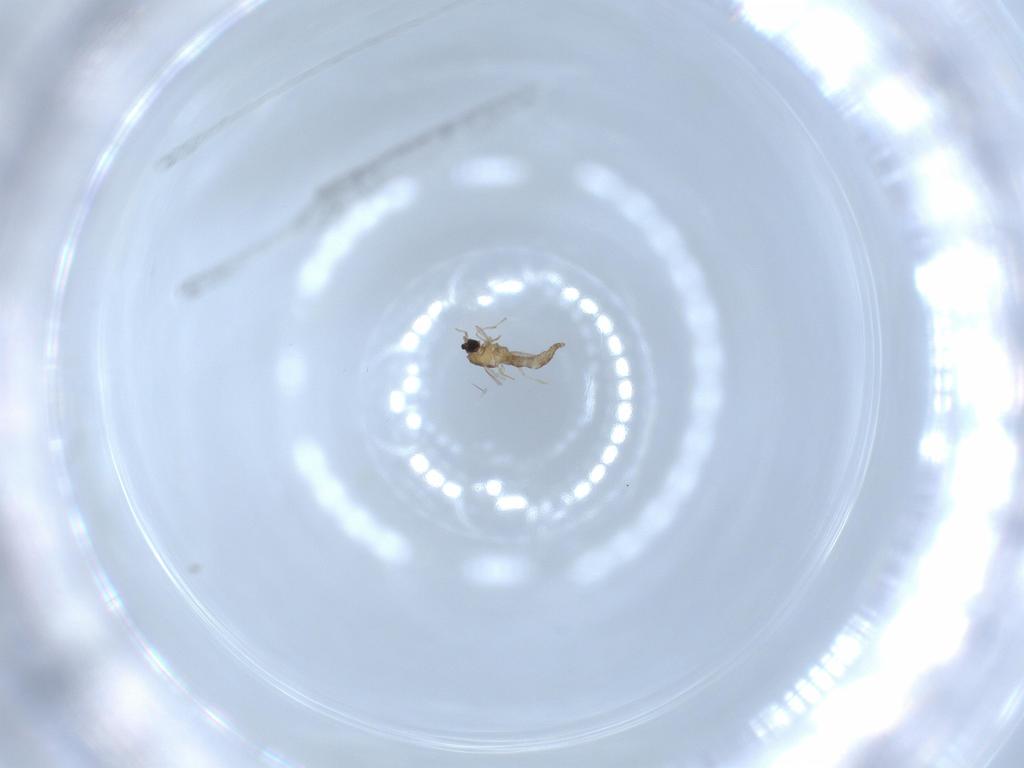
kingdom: Animalia
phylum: Arthropoda
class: Insecta
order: Diptera
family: Cecidomyiidae
